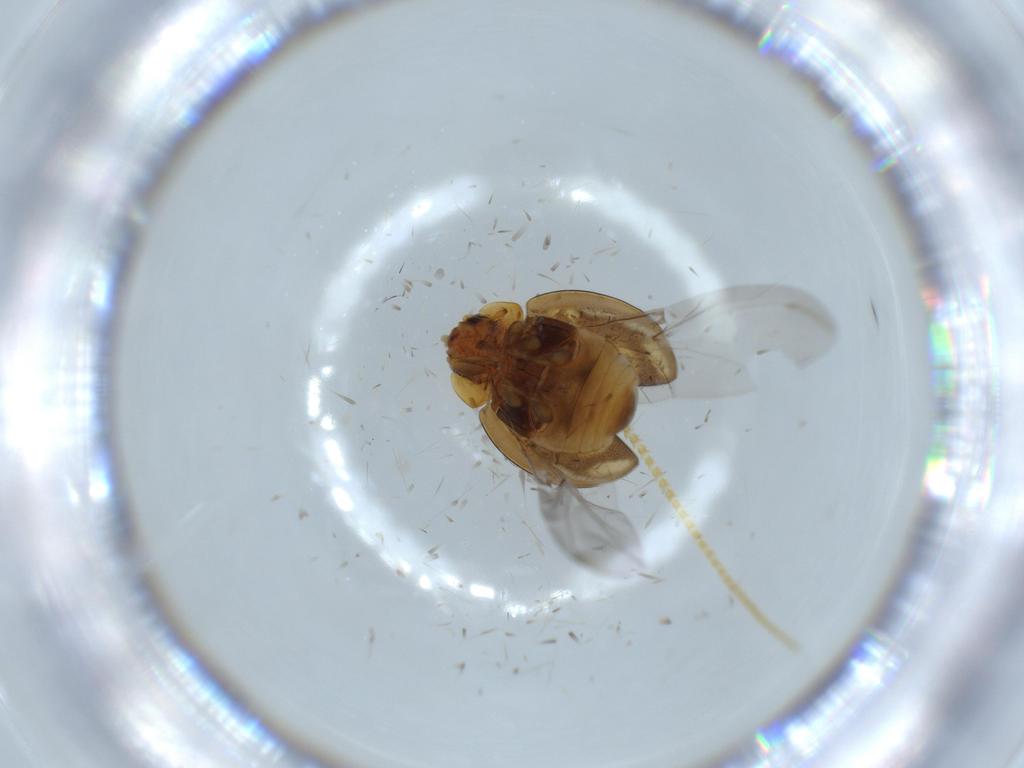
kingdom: Animalia
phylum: Arthropoda
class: Insecta
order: Coleoptera
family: Coccinellidae
